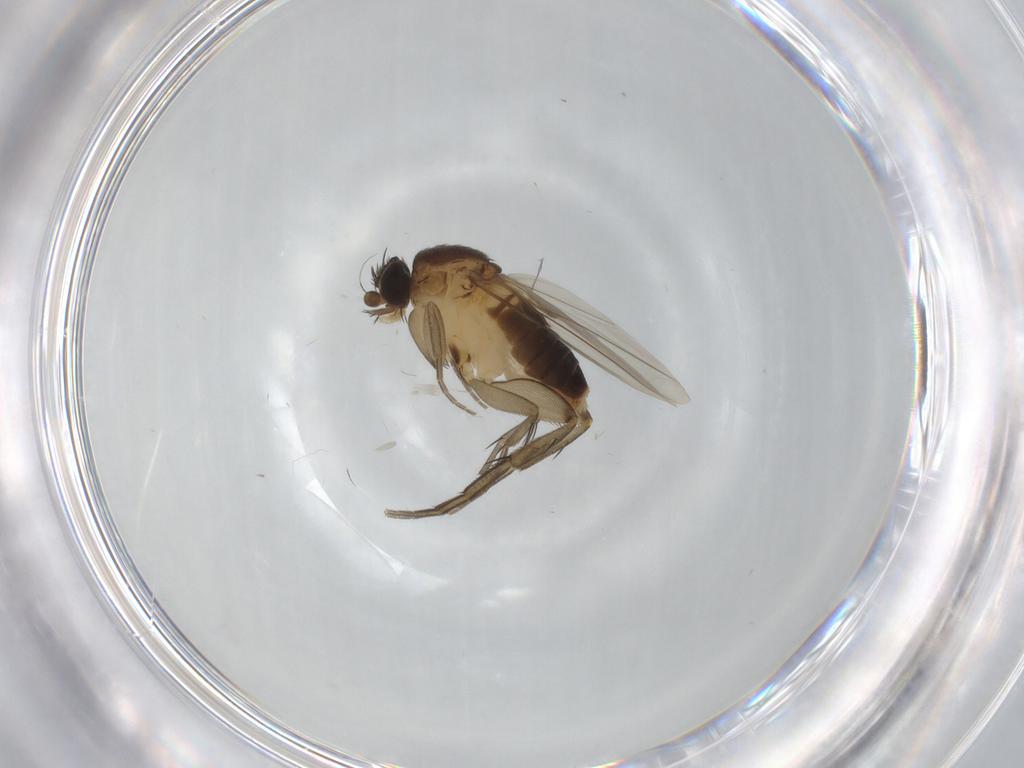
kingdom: Animalia
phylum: Arthropoda
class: Insecta
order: Diptera
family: Phoridae
